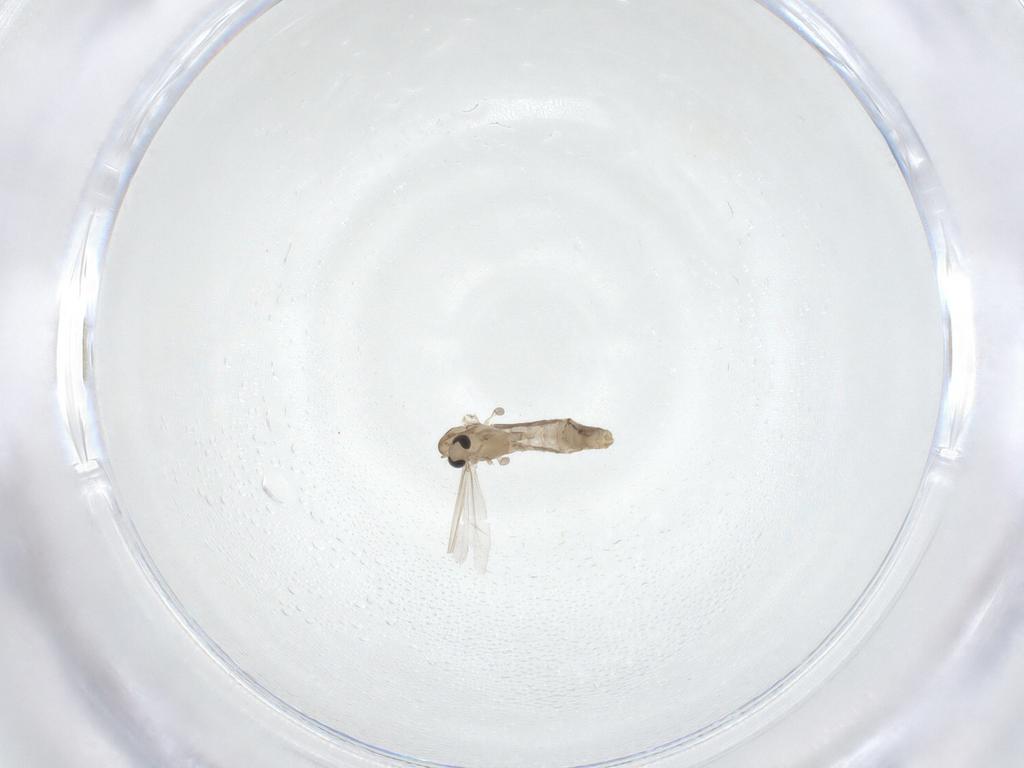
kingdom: Animalia
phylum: Arthropoda
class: Insecta
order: Diptera
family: Chironomidae
